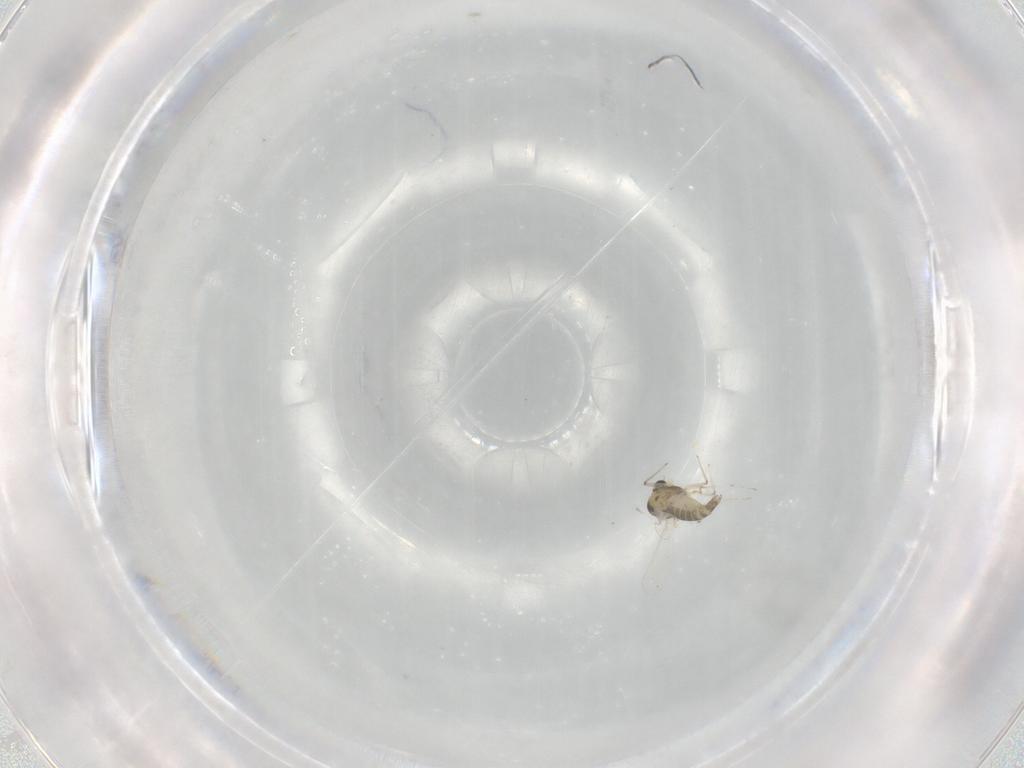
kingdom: Animalia
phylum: Arthropoda
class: Insecta
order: Diptera
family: Chironomidae
